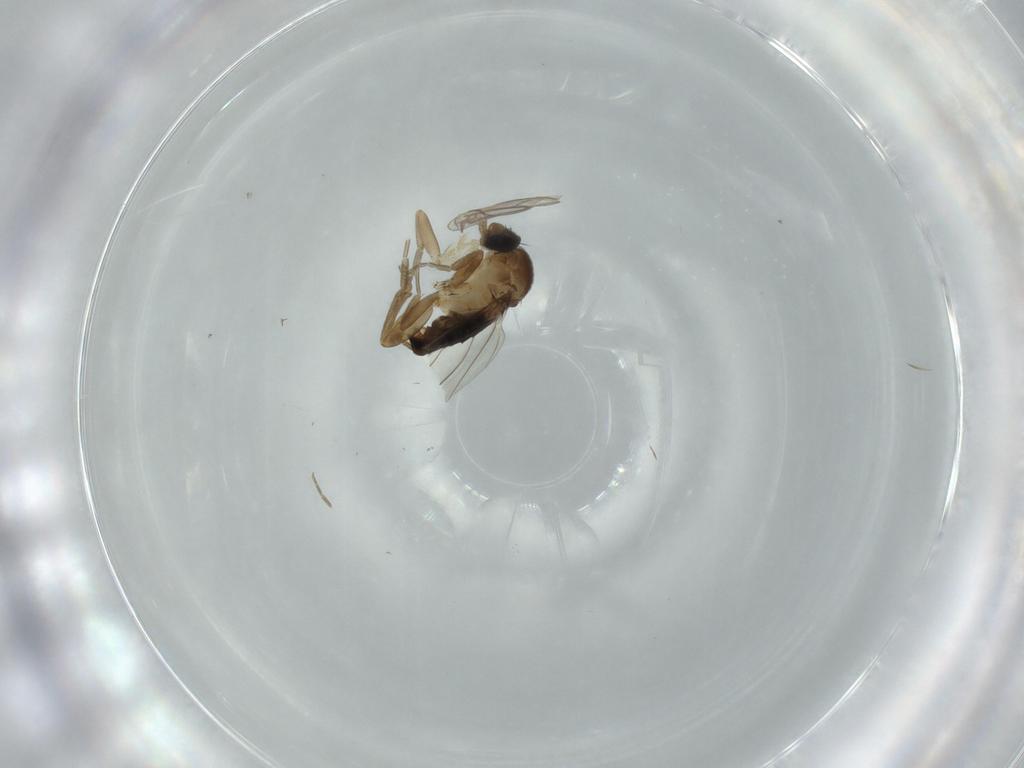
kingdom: Animalia
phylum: Arthropoda
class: Insecta
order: Diptera
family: Phoridae
